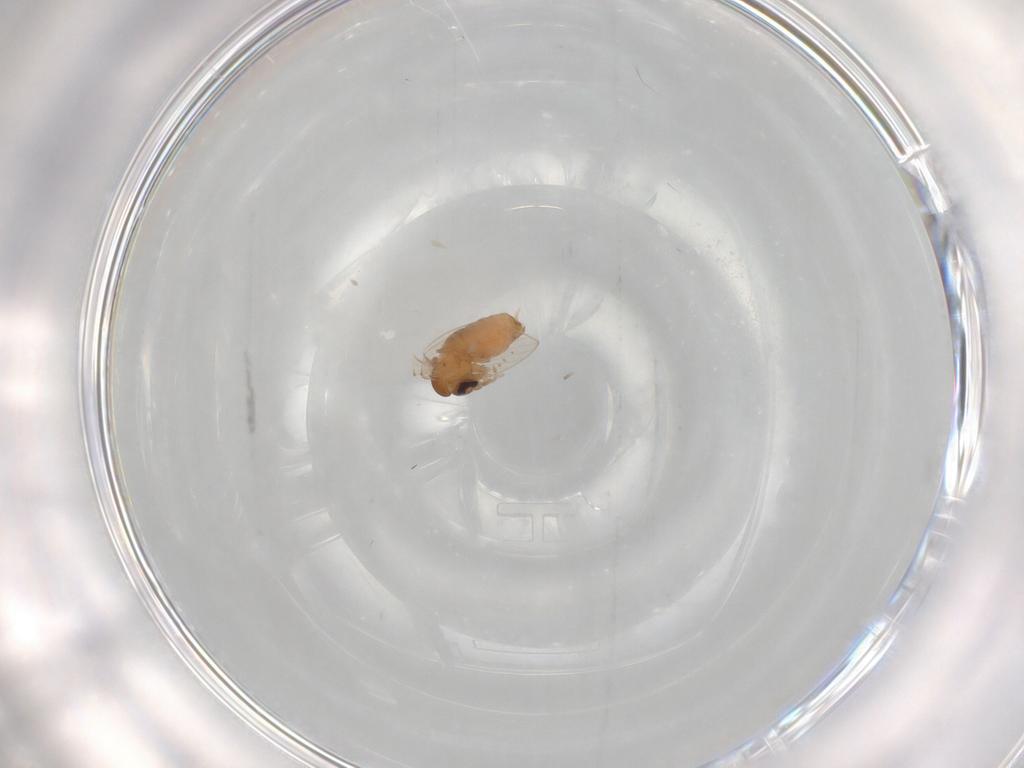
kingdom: Animalia
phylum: Arthropoda
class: Insecta
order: Diptera
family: Psychodidae
